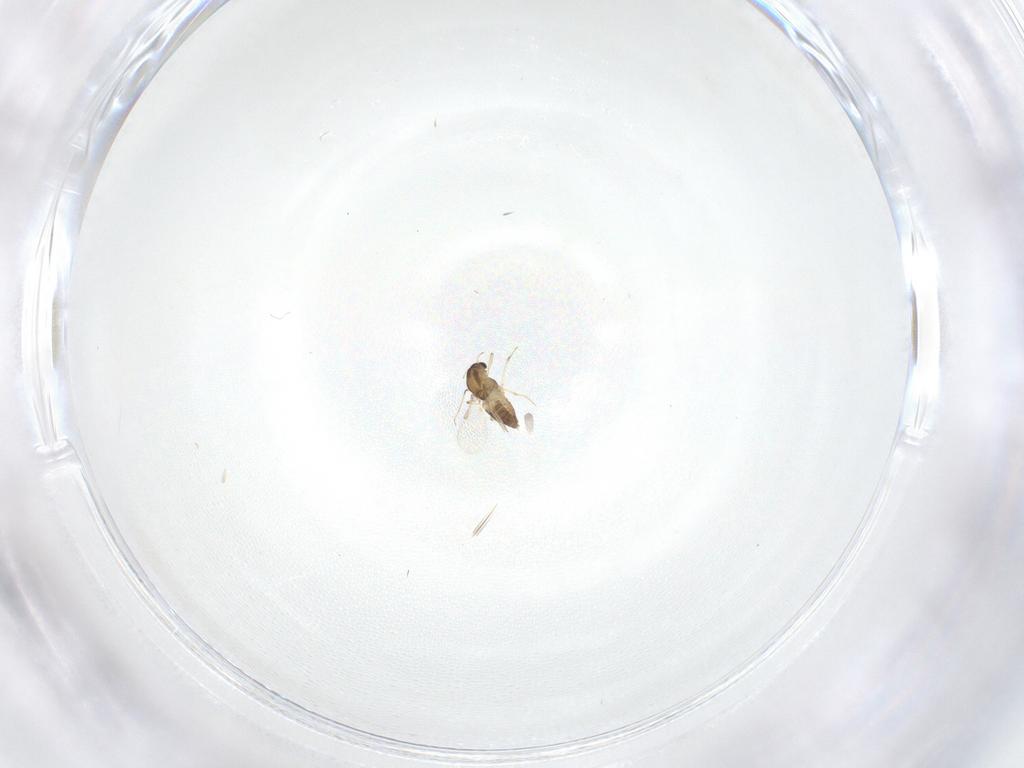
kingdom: Animalia
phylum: Arthropoda
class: Insecta
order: Diptera
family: Chironomidae
